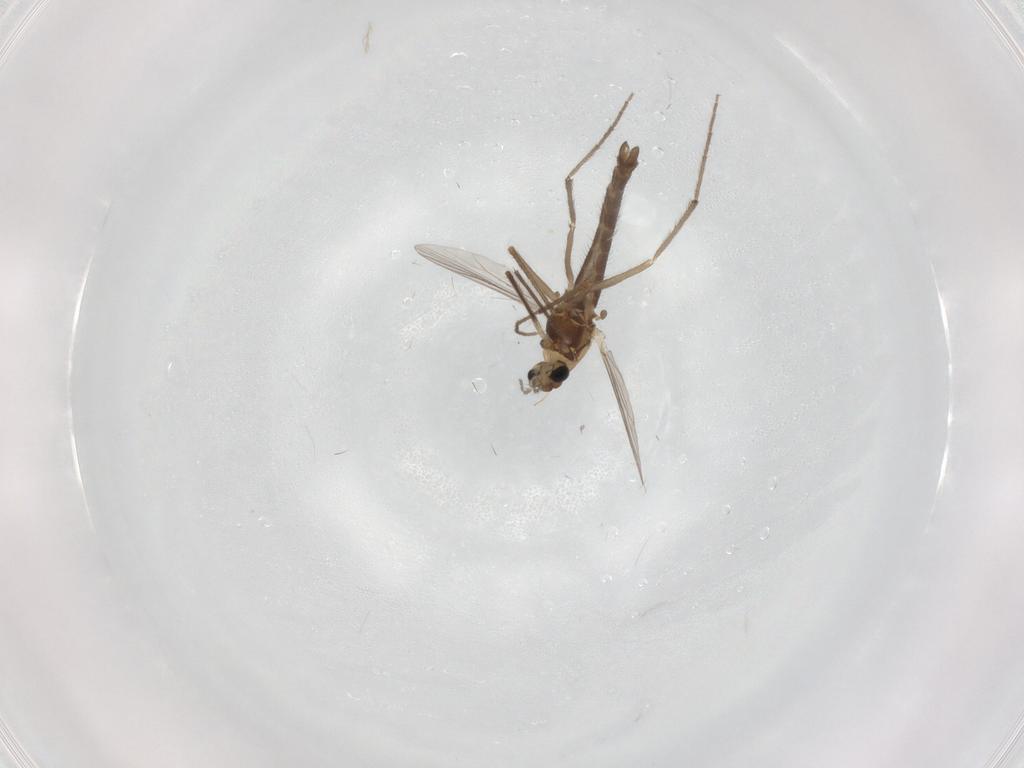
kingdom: Animalia
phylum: Arthropoda
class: Insecta
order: Diptera
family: Chironomidae
